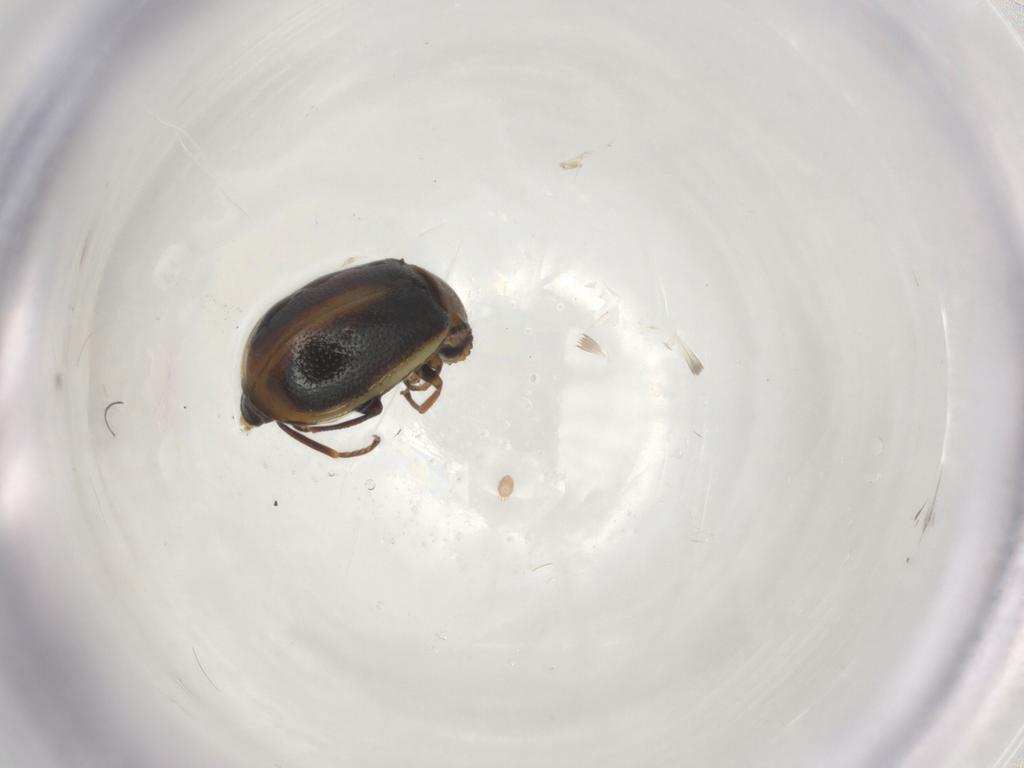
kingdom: Animalia
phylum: Arthropoda
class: Insecta
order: Coleoptera
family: Melyridae
